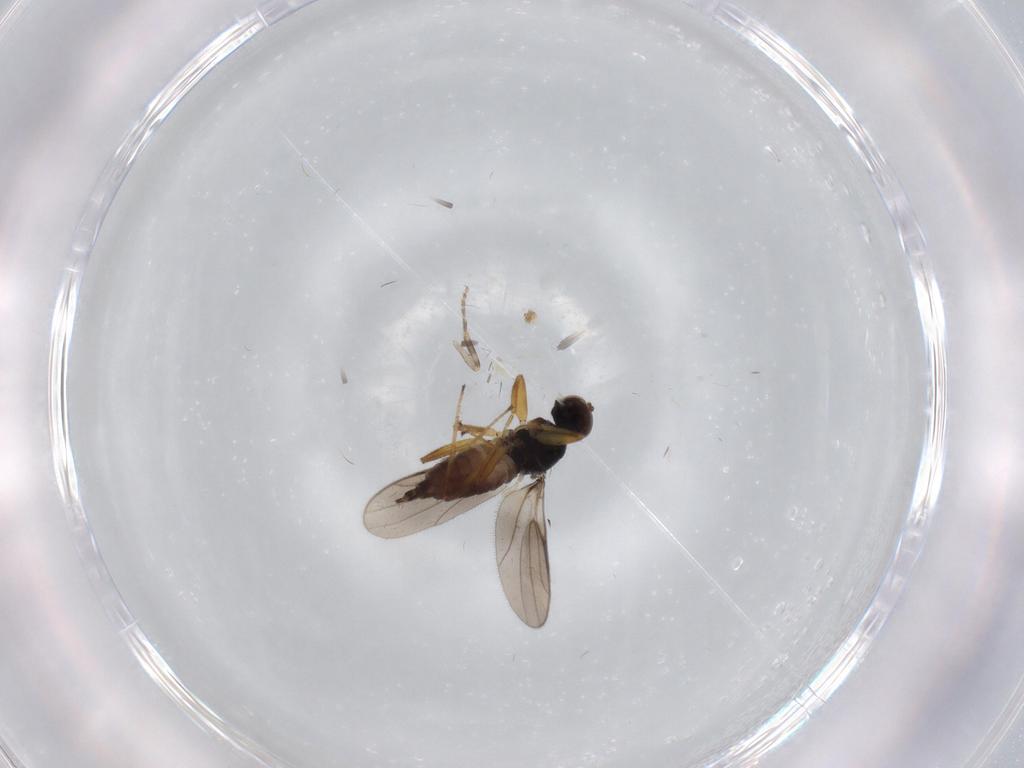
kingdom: Animalia
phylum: Arthropoda
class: Insecta
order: Diptera
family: Hybotidae
